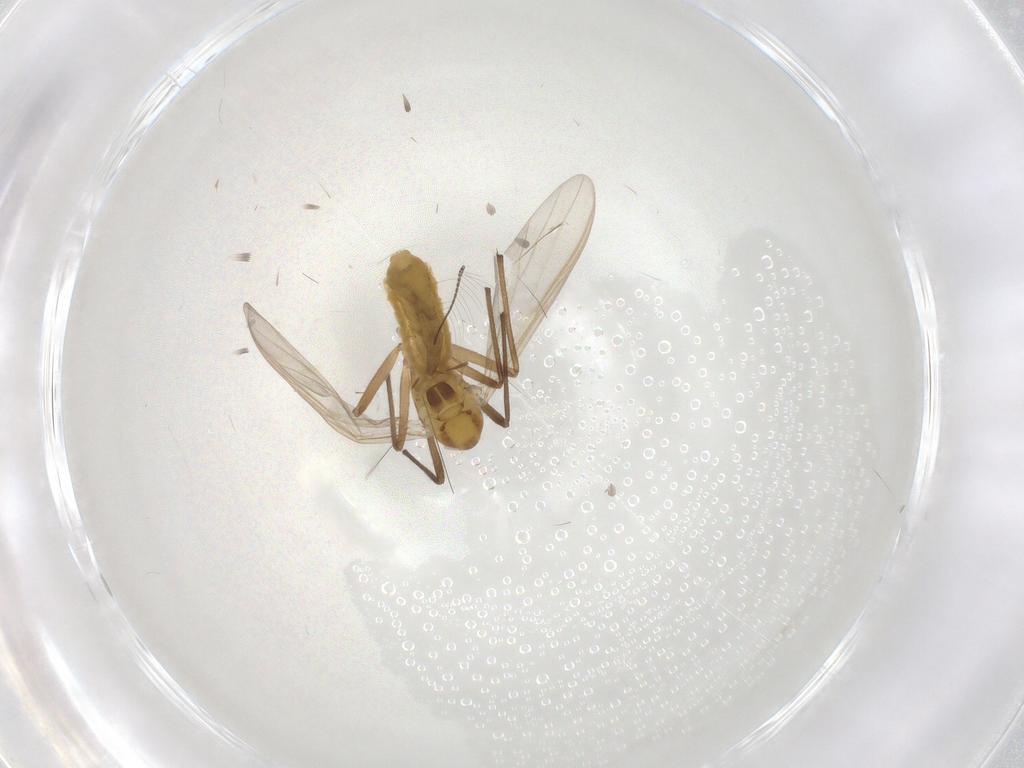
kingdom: Animalia
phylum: Arthropoda
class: Insecta
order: Diptera
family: Chironomidae
